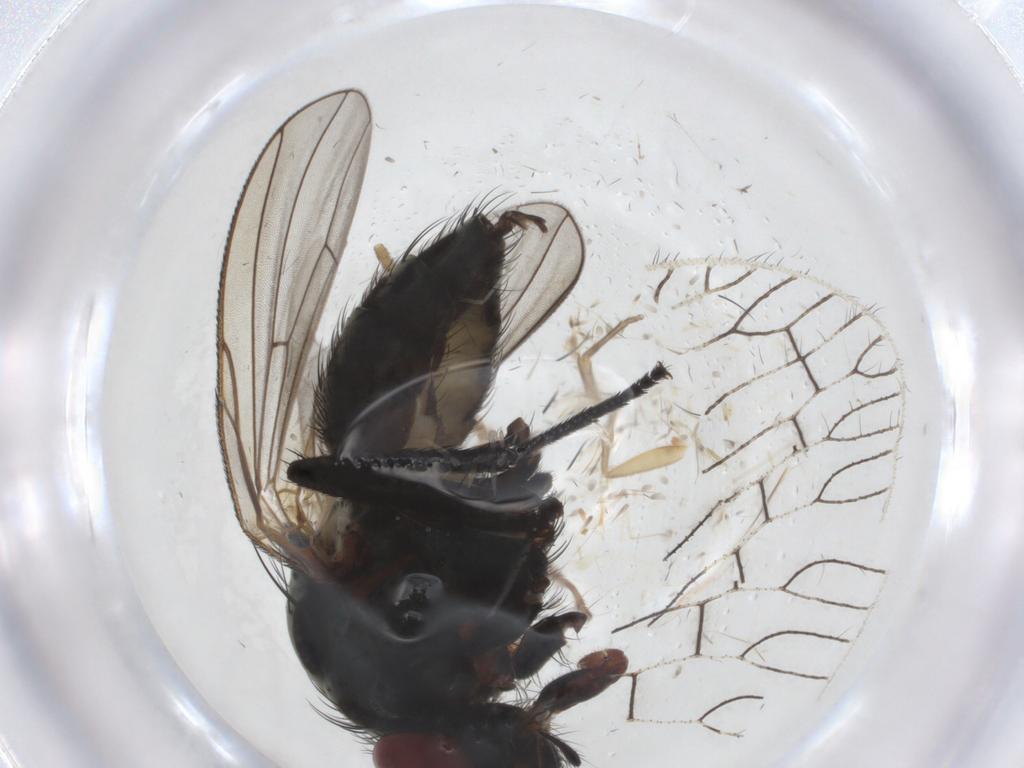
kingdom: Animalia
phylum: Arthropoda
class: Insecta
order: Diptera
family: Anthomyiidae
